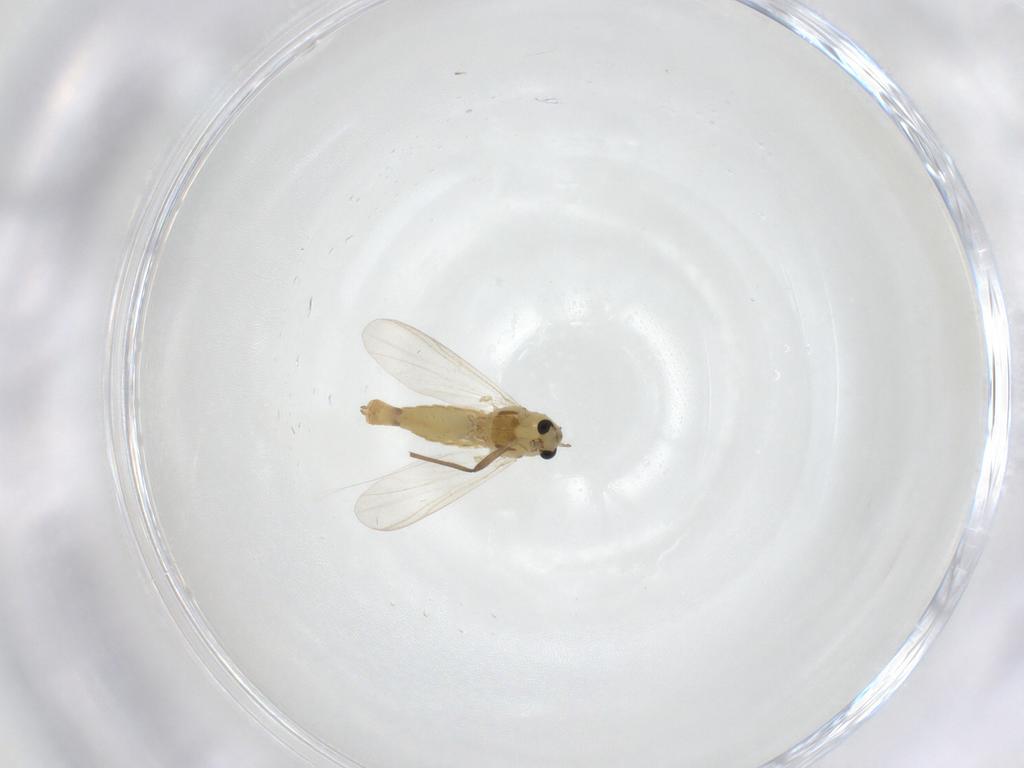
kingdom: Animalia
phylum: Arthropoda
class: Insecta
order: Diptera
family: Chironomidae
